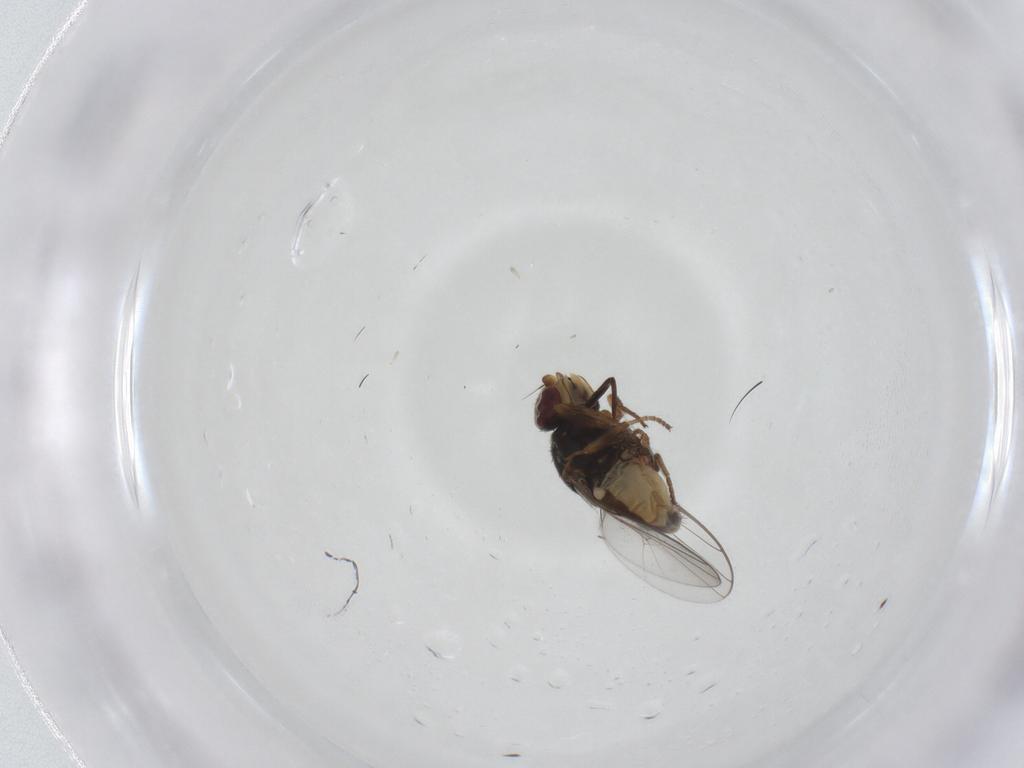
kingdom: Animalia
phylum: Arthropoda
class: Insecta
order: Diptera
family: Chloropidae
